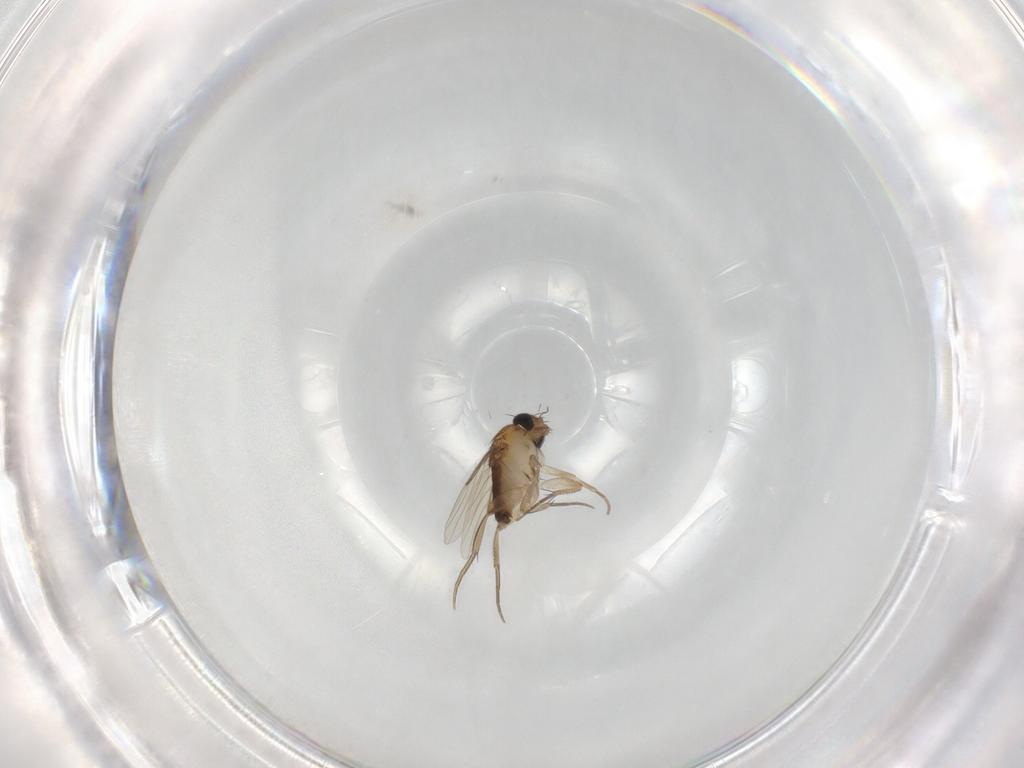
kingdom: Animalia
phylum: Arthropoda
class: Insecta
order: Diptera
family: Phoridae
